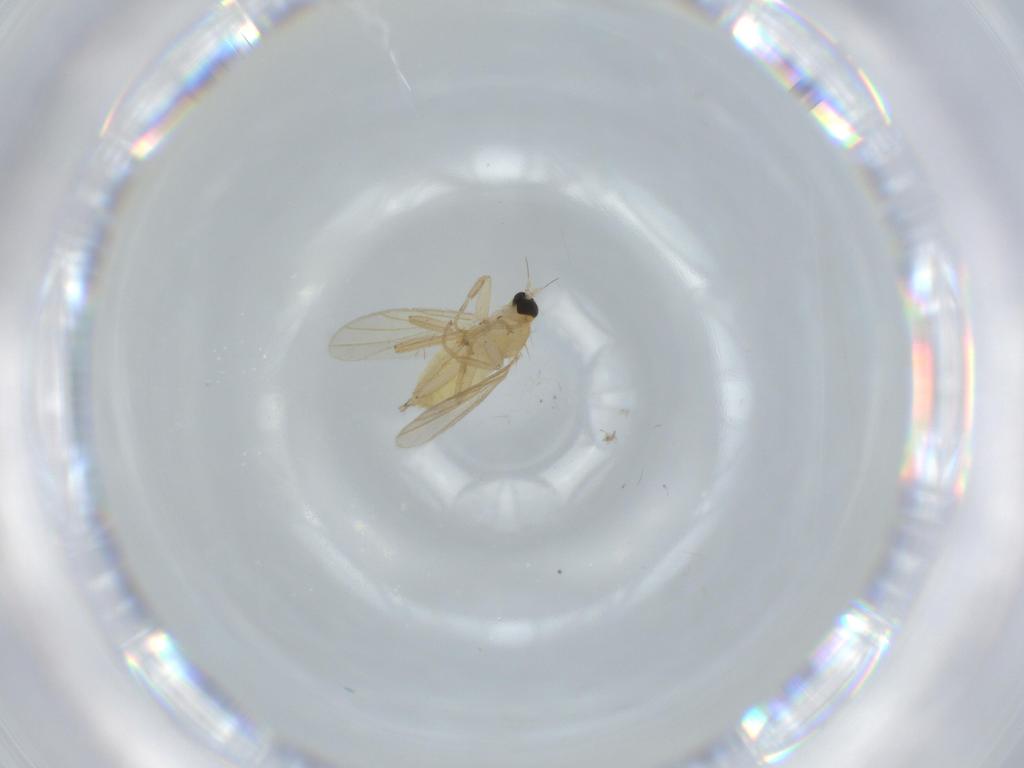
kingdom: Animalia
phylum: Arthropoda
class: Insecta
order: Diptera
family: Hybotidae
